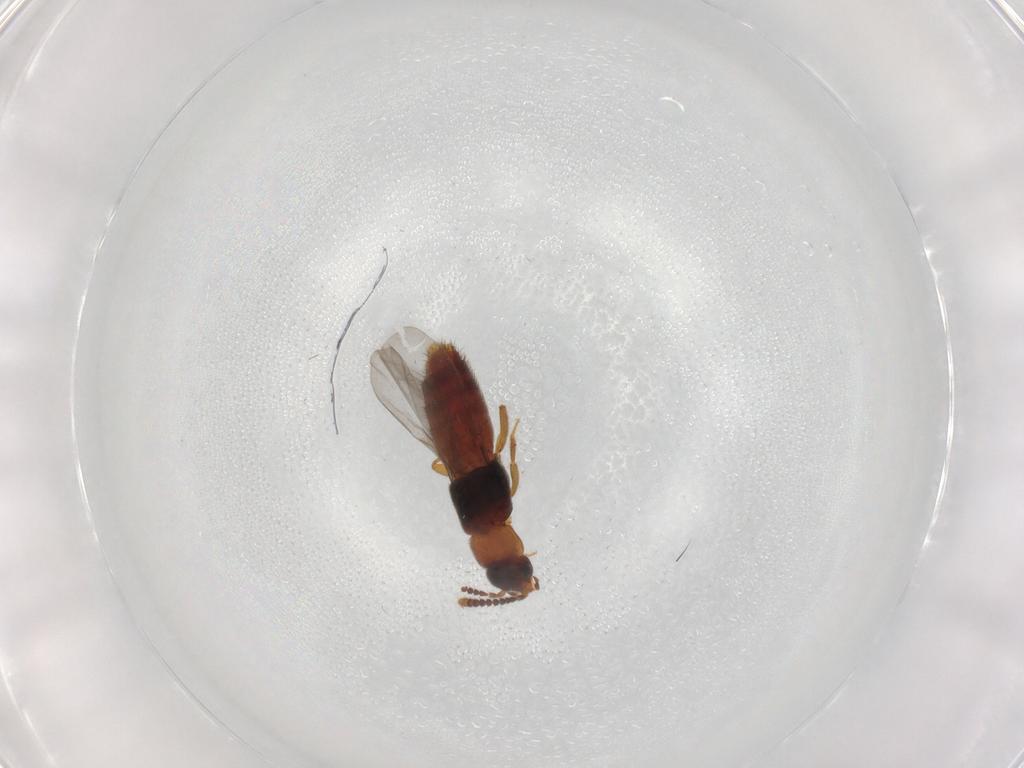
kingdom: Animalia
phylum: Arthropoda
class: Insecta
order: Coleoptera
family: Staphylinidae
